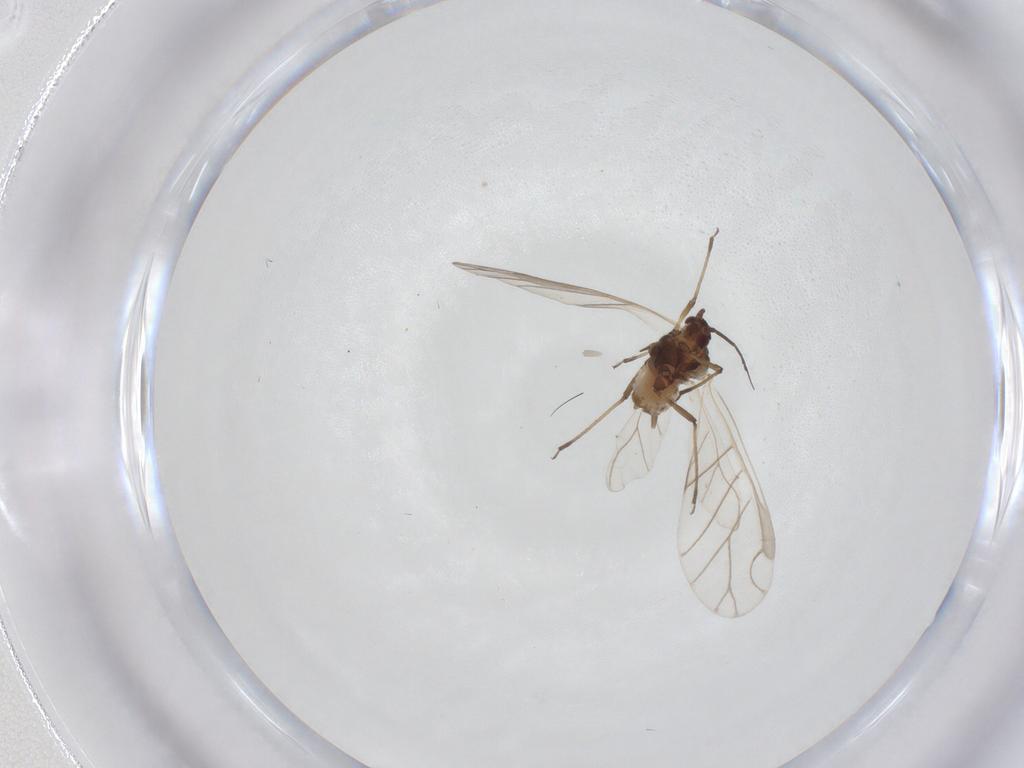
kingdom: Animalia
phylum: Arthropoda
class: Insecta
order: Hemiptera
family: Aphididae
